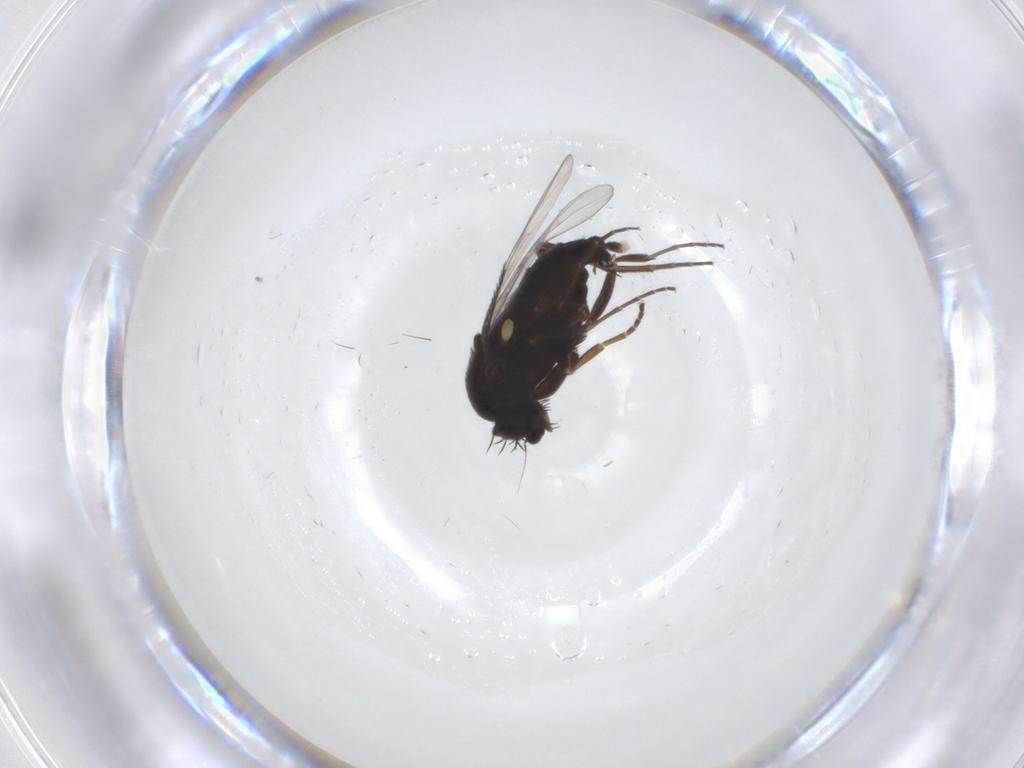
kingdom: Animalia
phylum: Arthropoda
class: Insecta
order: Diptera
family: Phoridae
